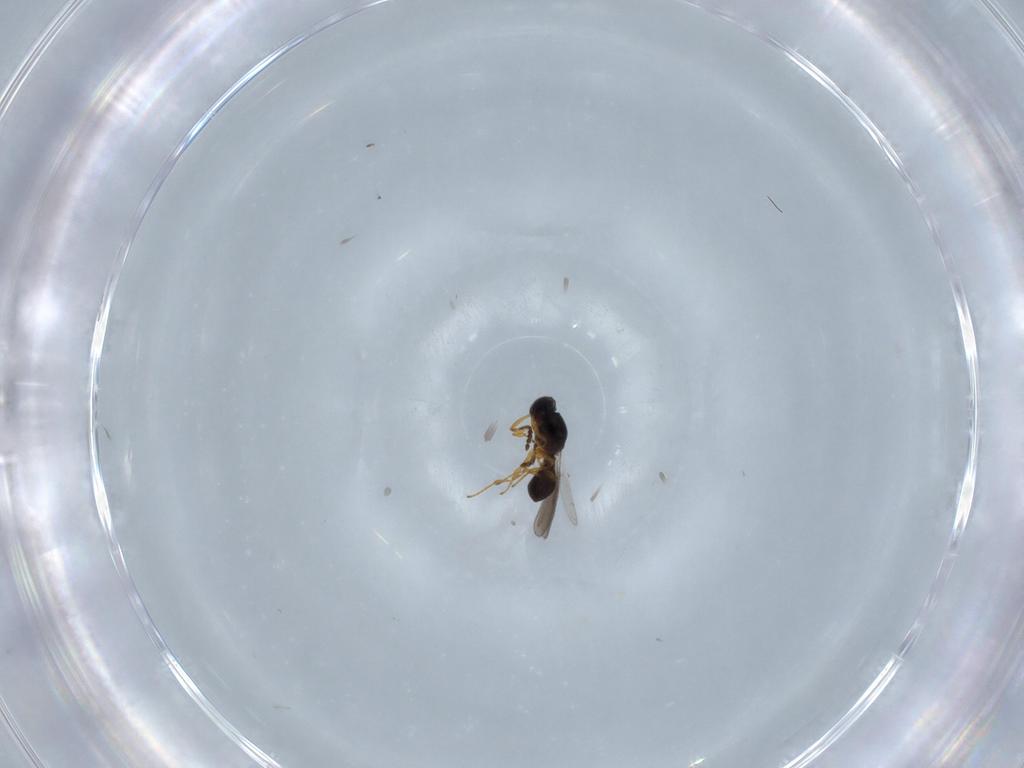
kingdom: Animalia
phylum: Arthropoda
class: Insecta
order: Hymenoptera
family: Platygastridae
